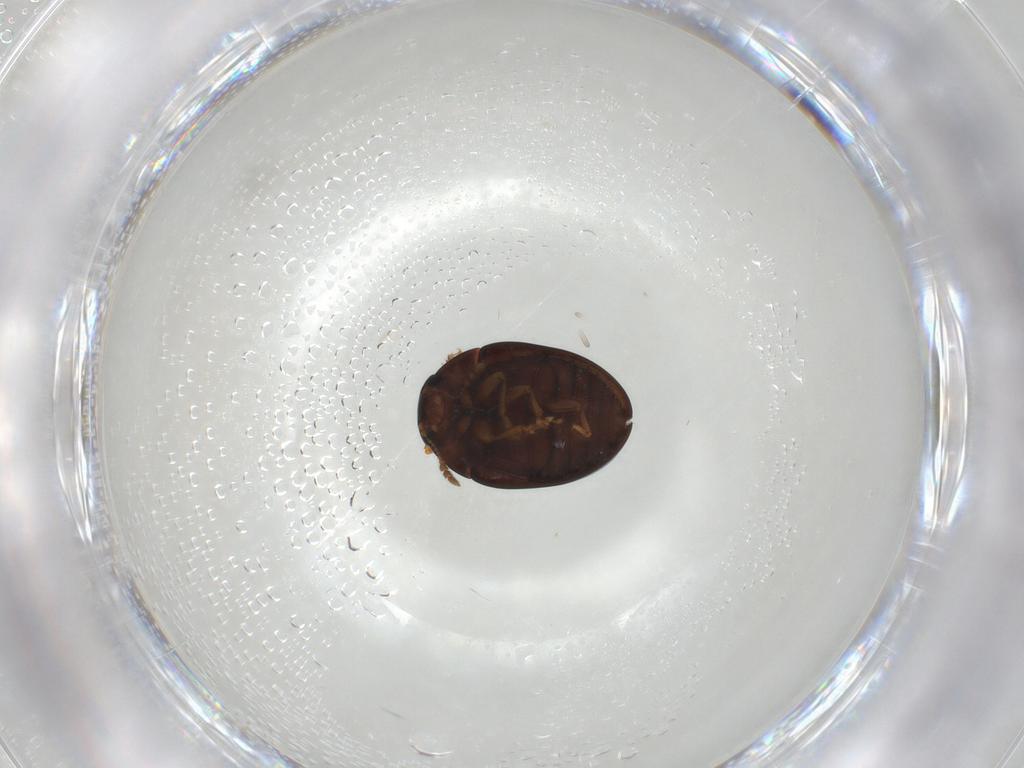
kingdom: Animalia
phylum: Arthropoda
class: Insecta
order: Coleoptera
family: Phalacridae
